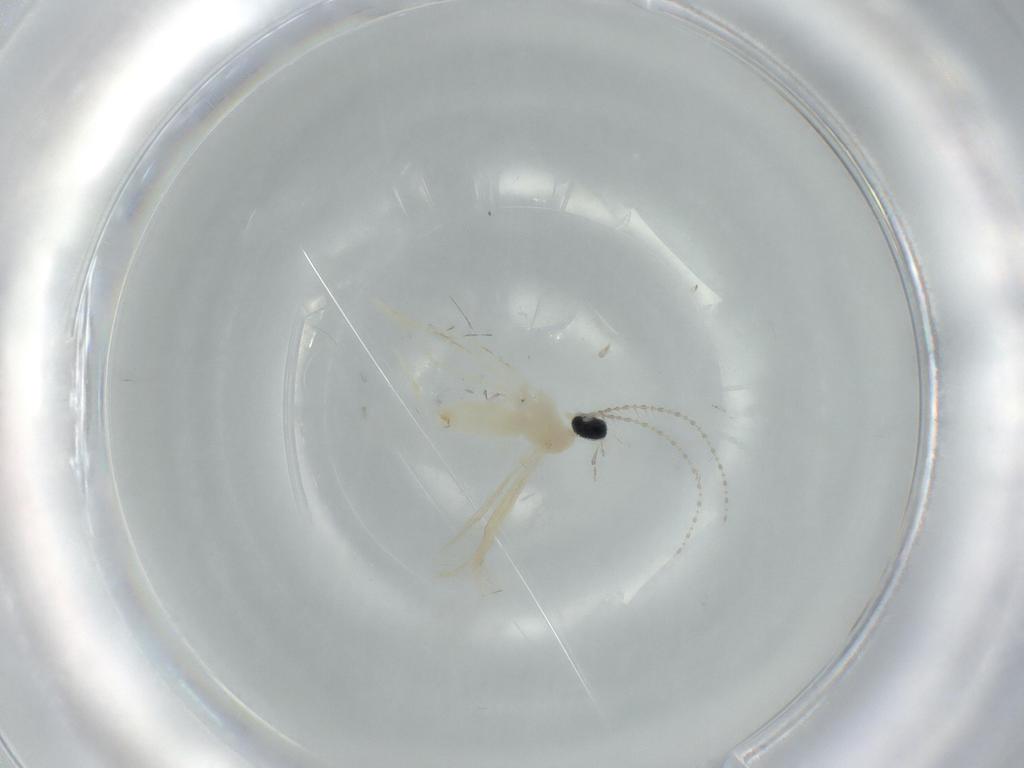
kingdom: Animalia
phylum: Arthropoda
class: Insecta
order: Diptera
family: Cecidomyiidae
